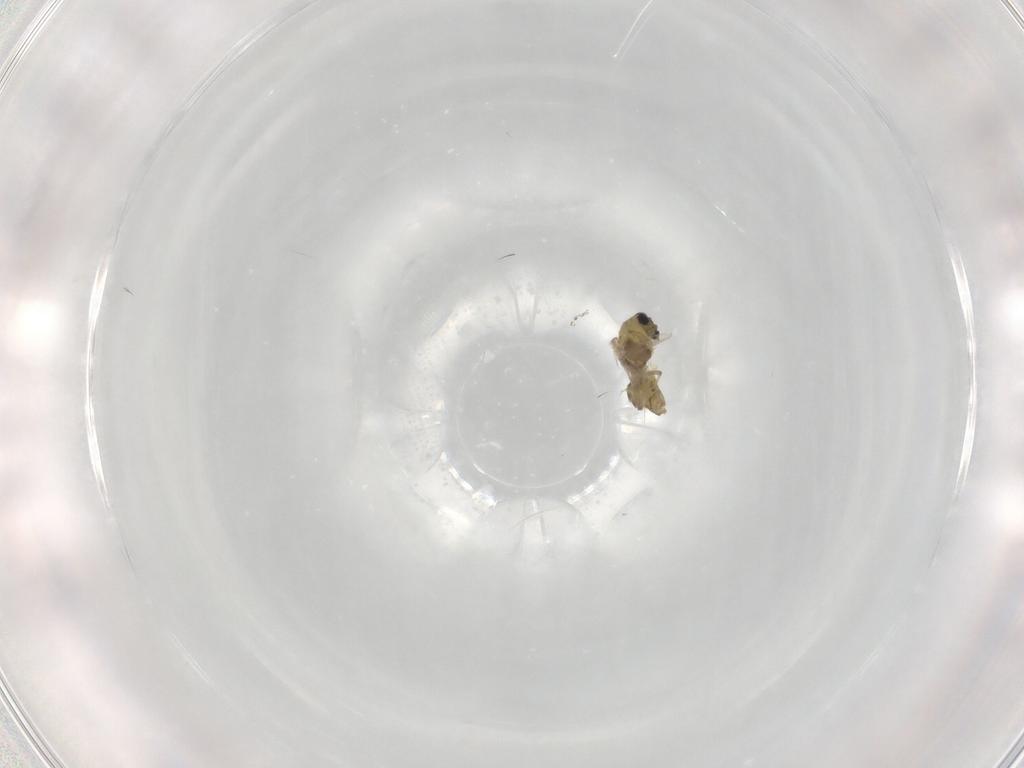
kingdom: Animalia
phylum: Arthropoda
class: Insecta
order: Diptera
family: Chironomidae
